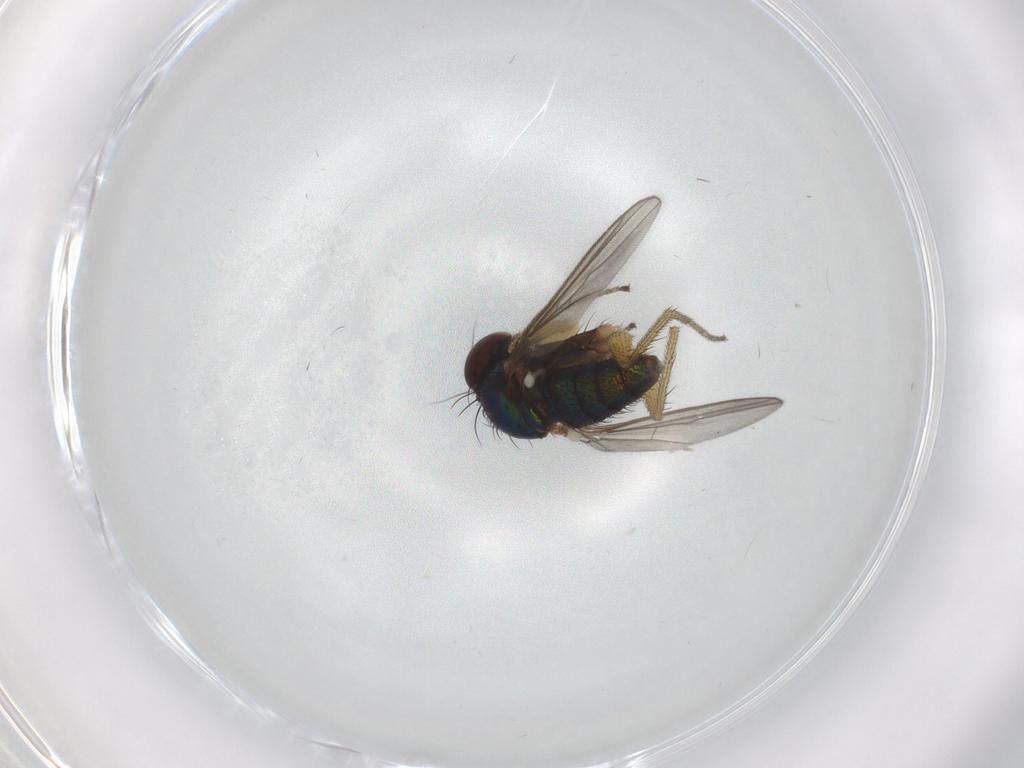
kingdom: Animalia
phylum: Arthropoda
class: Insecta
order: Diptera
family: Dolichopodidae
